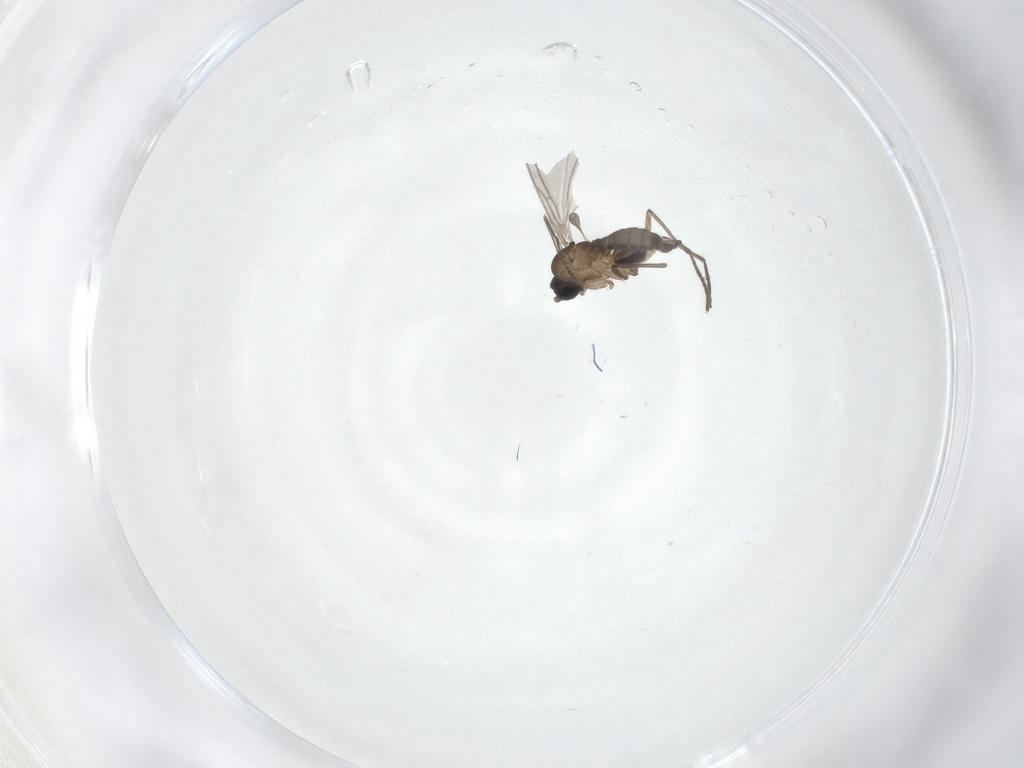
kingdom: Animalia
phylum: Arthropoda
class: Insecta
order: Diptera
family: Sciaridae
